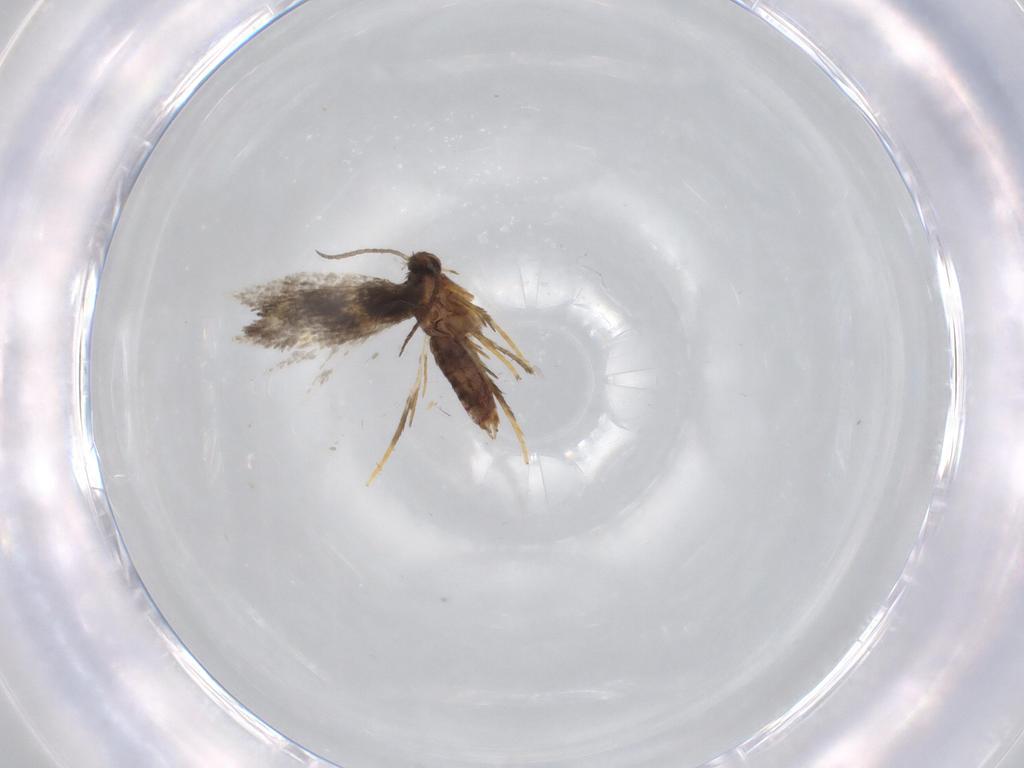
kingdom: Animalia
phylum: Arthropoda
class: Insecta
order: Lepidoptera
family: Heliozelidae
